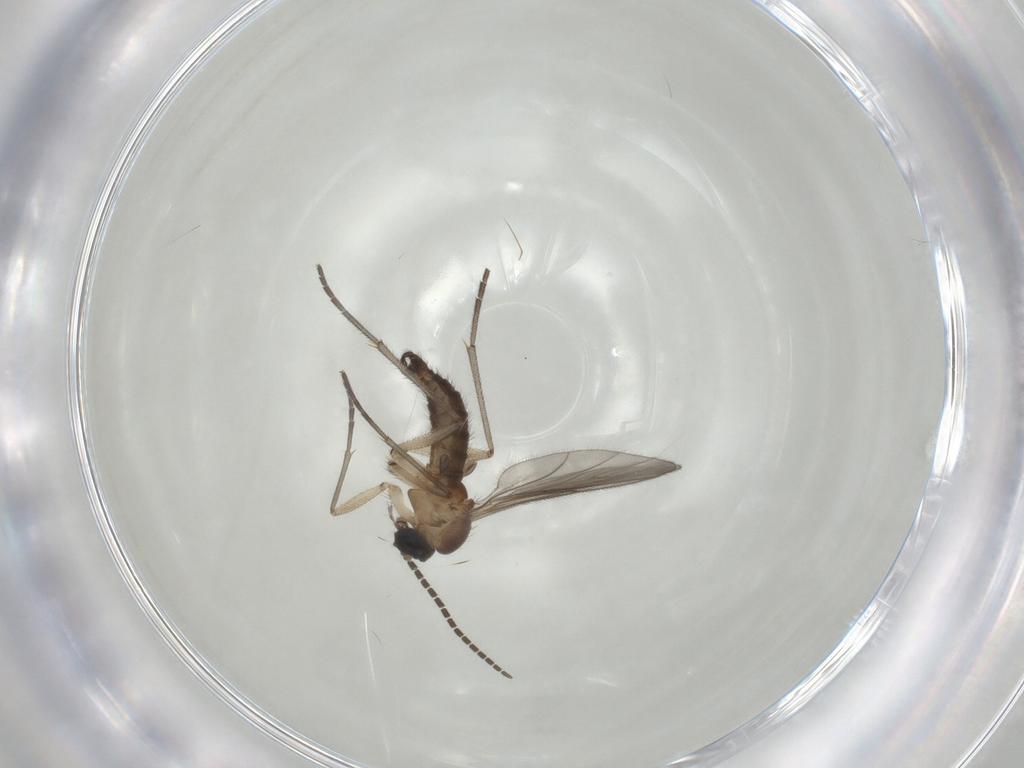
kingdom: Animalia
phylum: Arthropoda
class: Insecta
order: Diptera
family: Sciaridae
